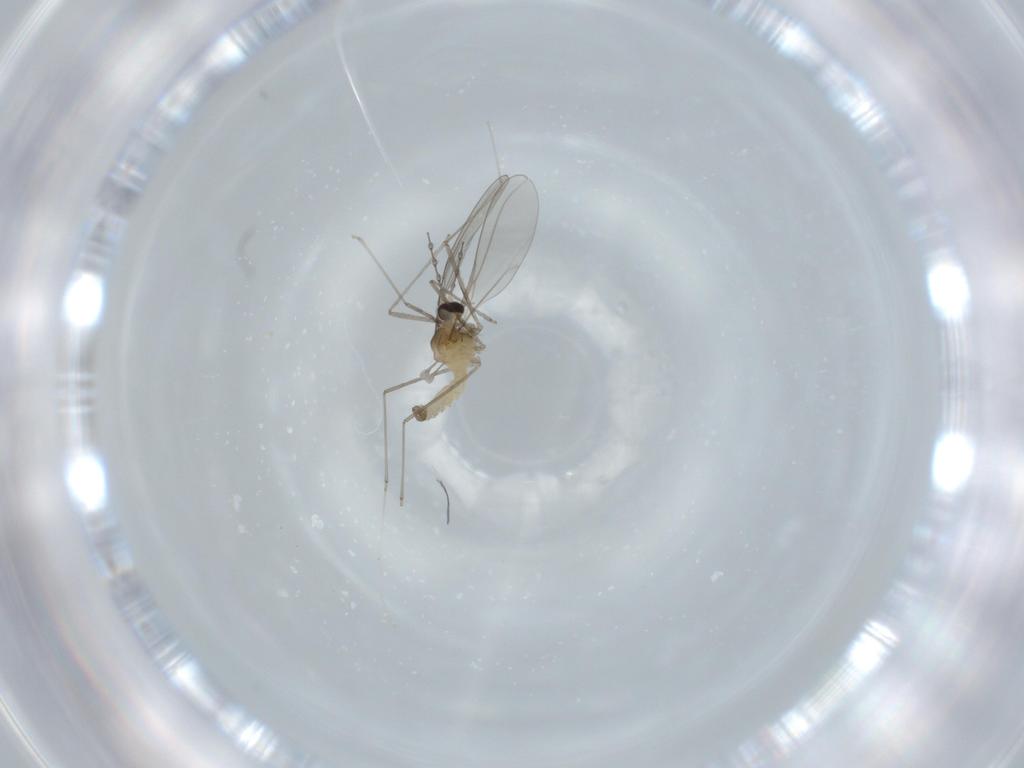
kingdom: Animalia
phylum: Arthropoda
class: Insecta
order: Diptera
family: Cecidomyiidae
